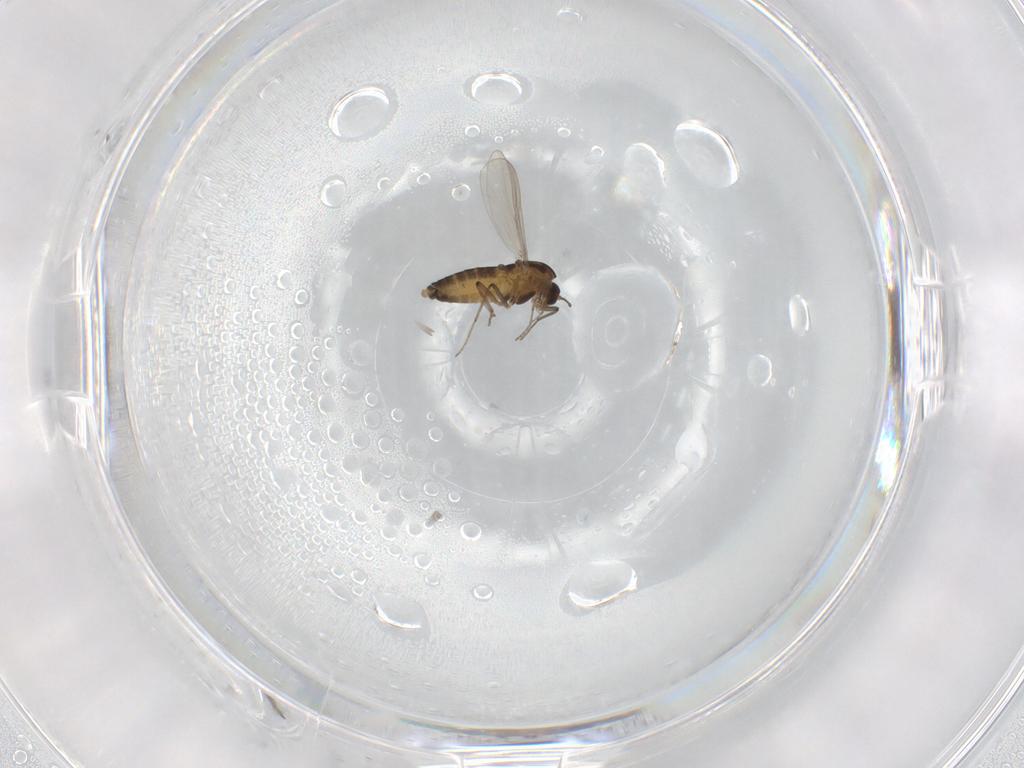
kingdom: Animalia
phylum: Arthropoda
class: Insecta
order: Diptera
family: Chironomidae
